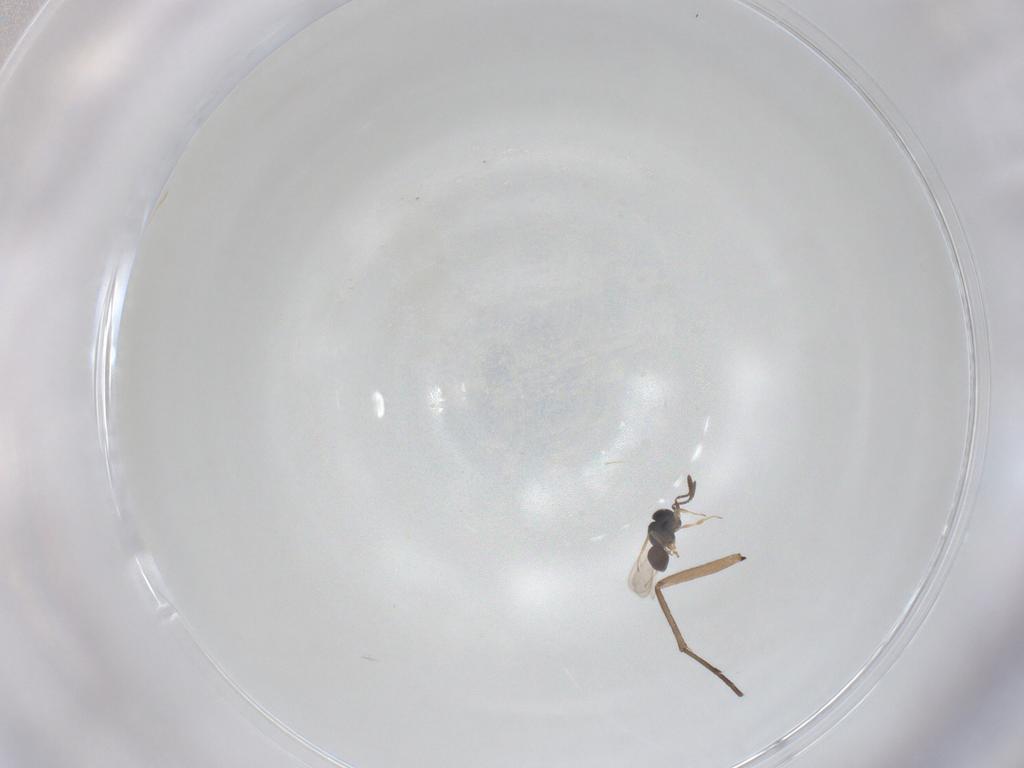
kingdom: Animalia
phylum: Arthropoda
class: Insecta
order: Hymenoptera
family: Scelionidae
